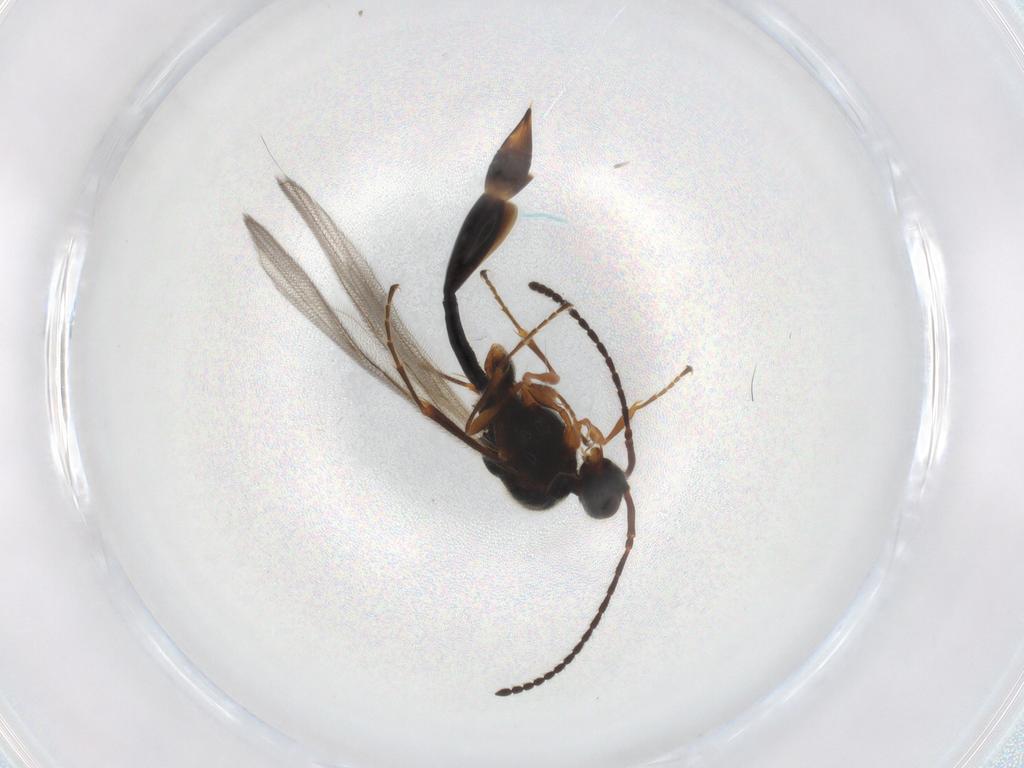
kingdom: Animalia
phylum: Arthropoda
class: Insecta
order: Hymenoptera
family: Diapriidae
